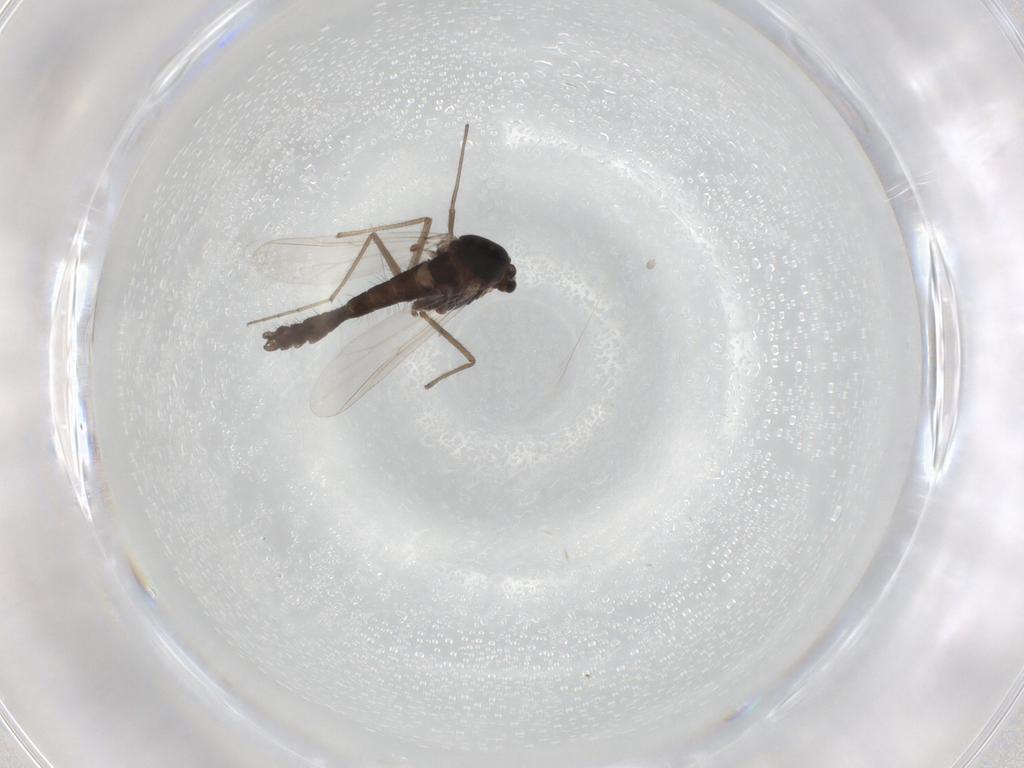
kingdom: Animalia
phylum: Arthropoda
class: Insecta
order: Diptera
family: Chironomidae
